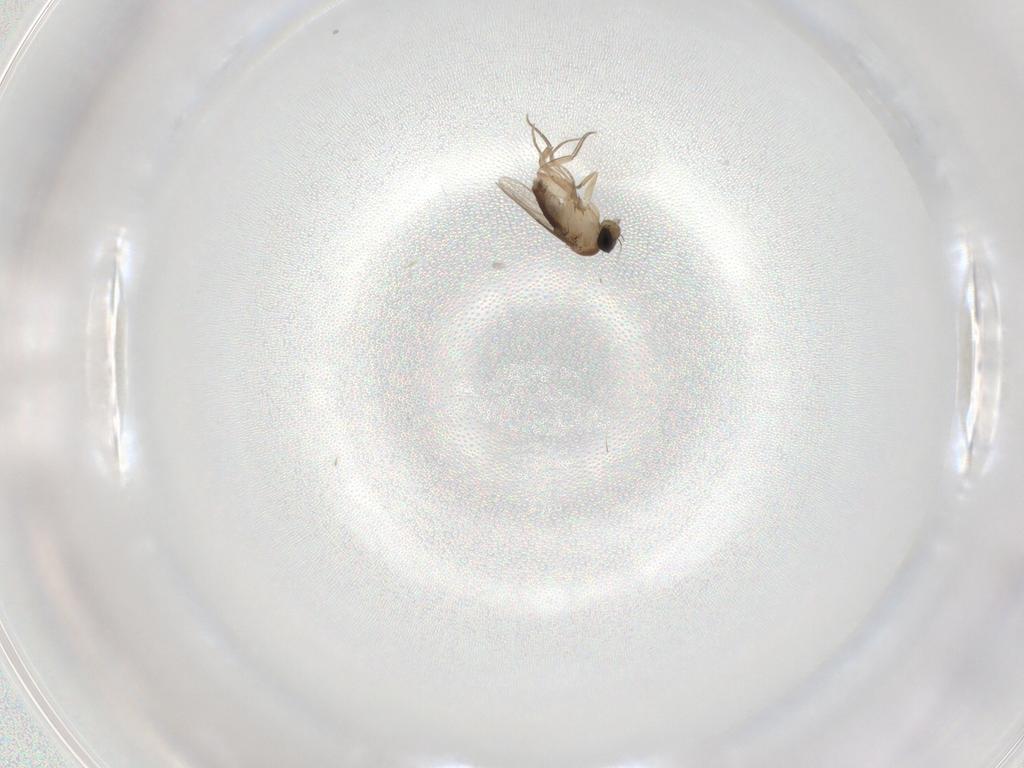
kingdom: Animalia
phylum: Arthropoda
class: Insecta
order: Diptera
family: Phoridae
